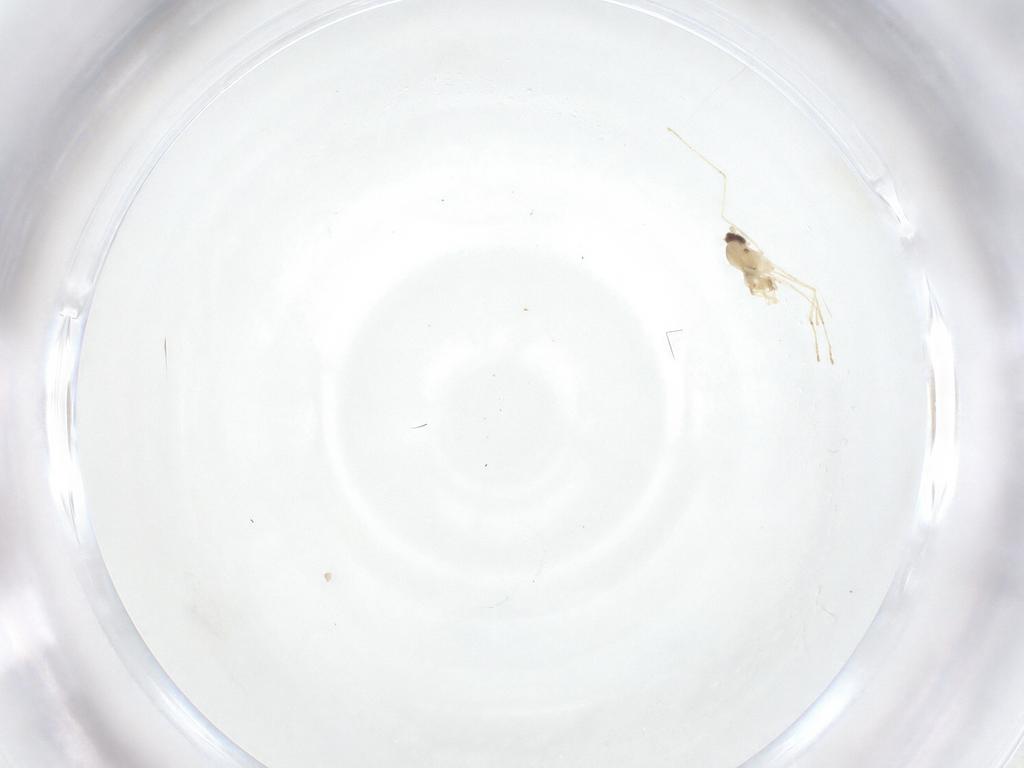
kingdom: Animalia
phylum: Arthropoda
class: Insecta
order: Diptera
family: Cecidomyiidae
